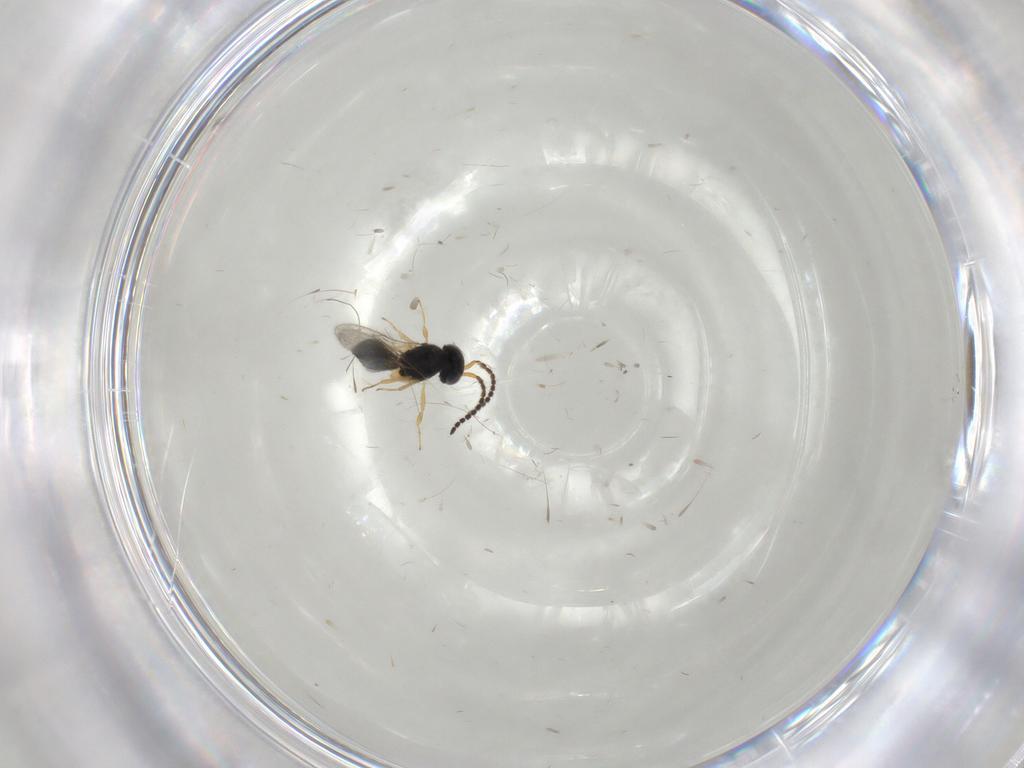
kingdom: Animalia
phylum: Arthropoda
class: Insecta
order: Hymenoptera
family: Scelionidae
